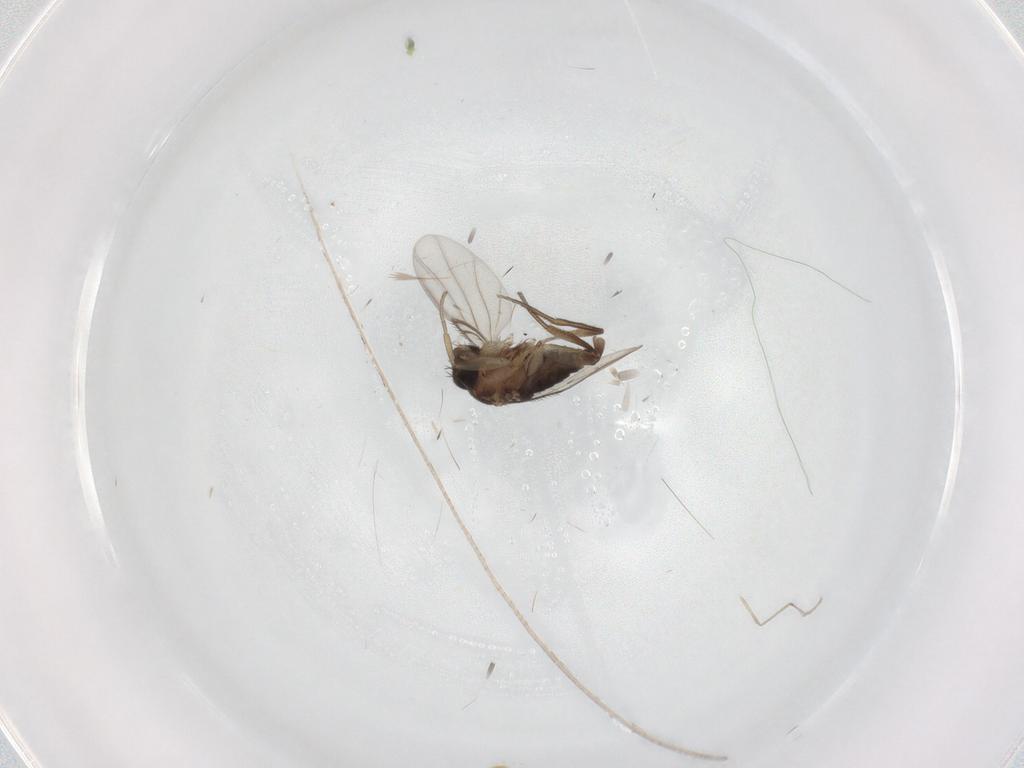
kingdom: Animalia
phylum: Arthropoda
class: Insecta
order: Diptera
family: Phoridae
